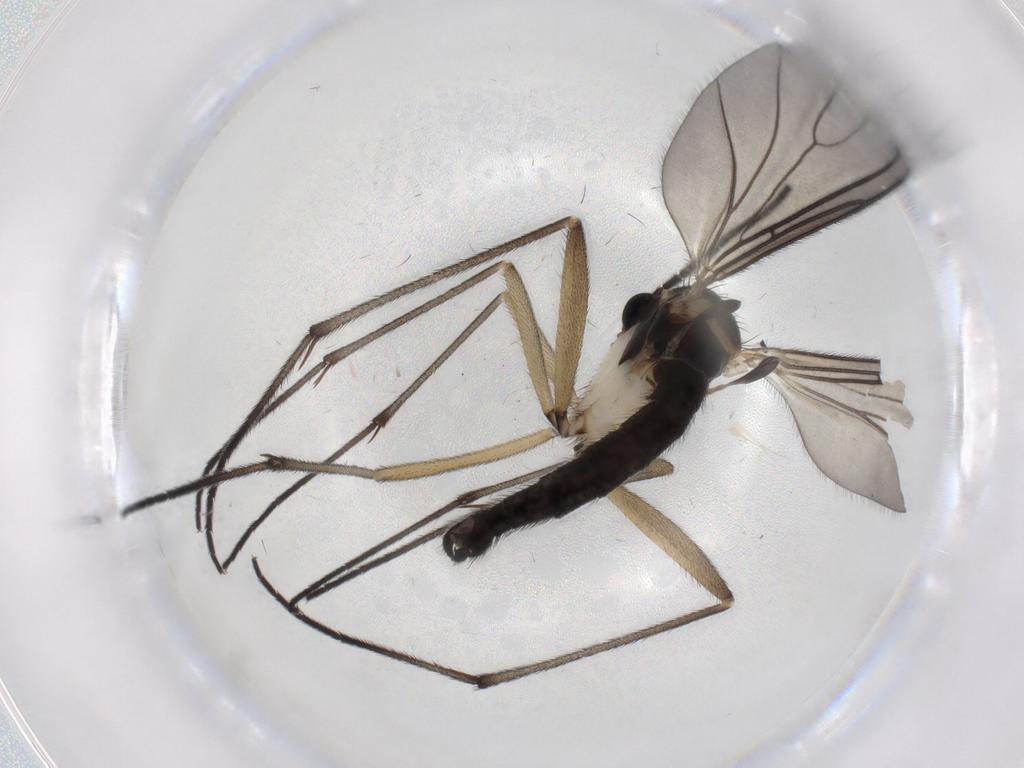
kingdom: Animalia
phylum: Arthropoda
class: Insecta
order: Diptera
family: Sciaridae
